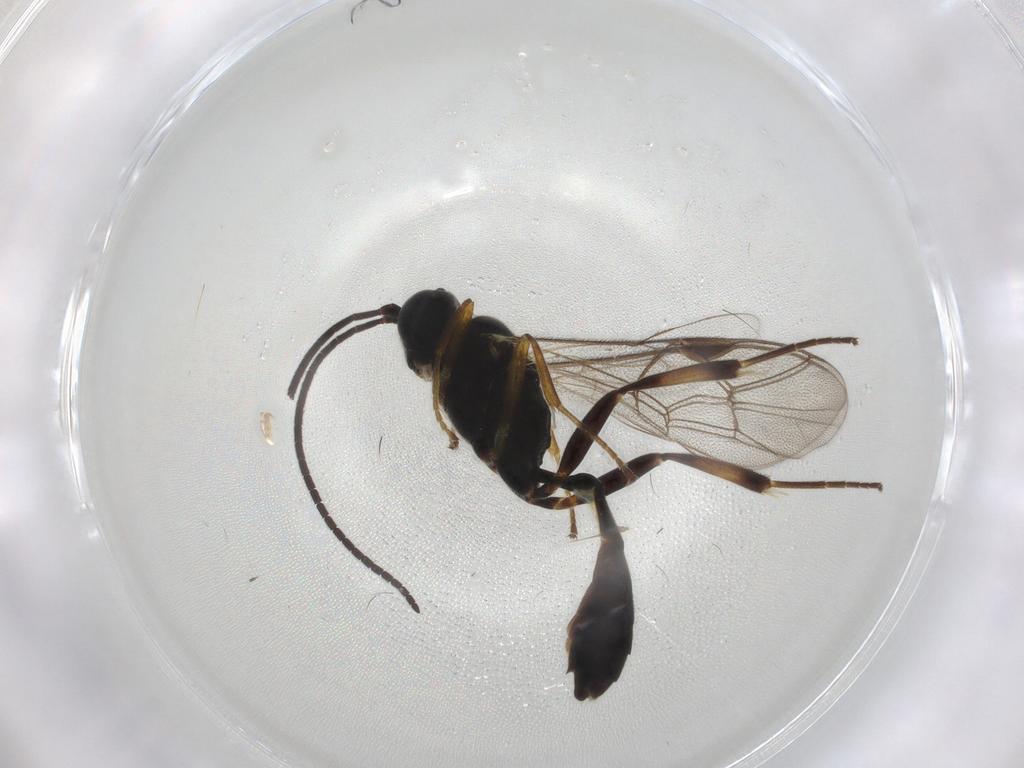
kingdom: Animalia
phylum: Arthropoda
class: Insecta
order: Hymenoptera
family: Ichneumonidae
